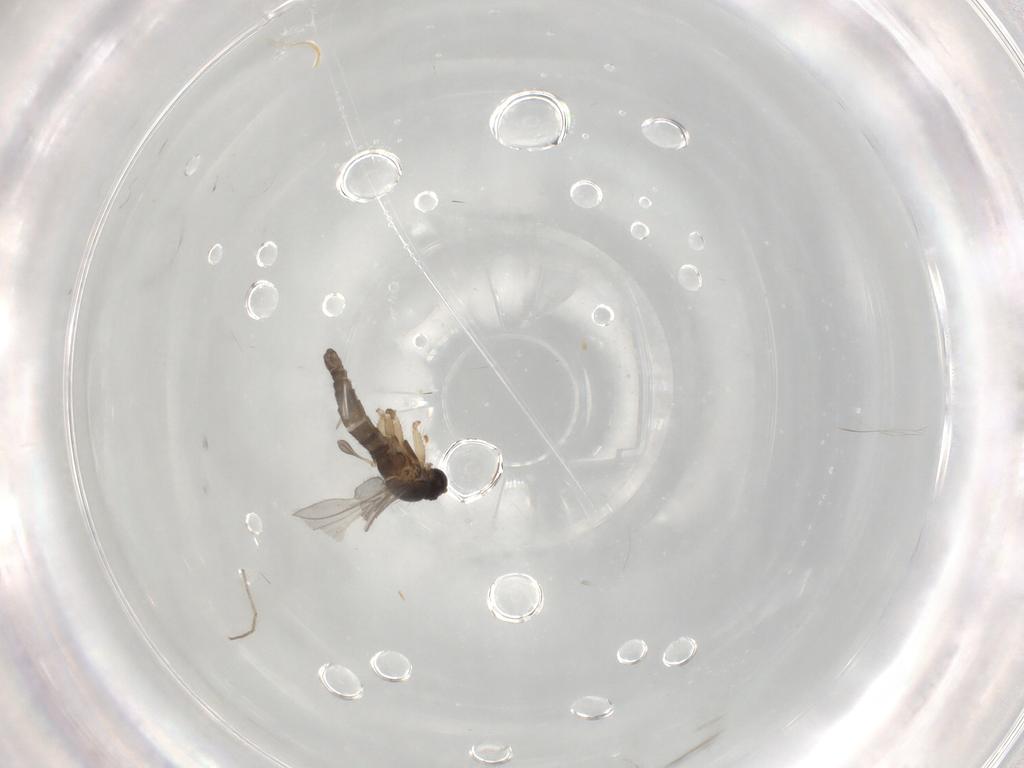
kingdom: Animalia
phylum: Arthropoda
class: Insecta
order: Diptera
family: Sciaridae
